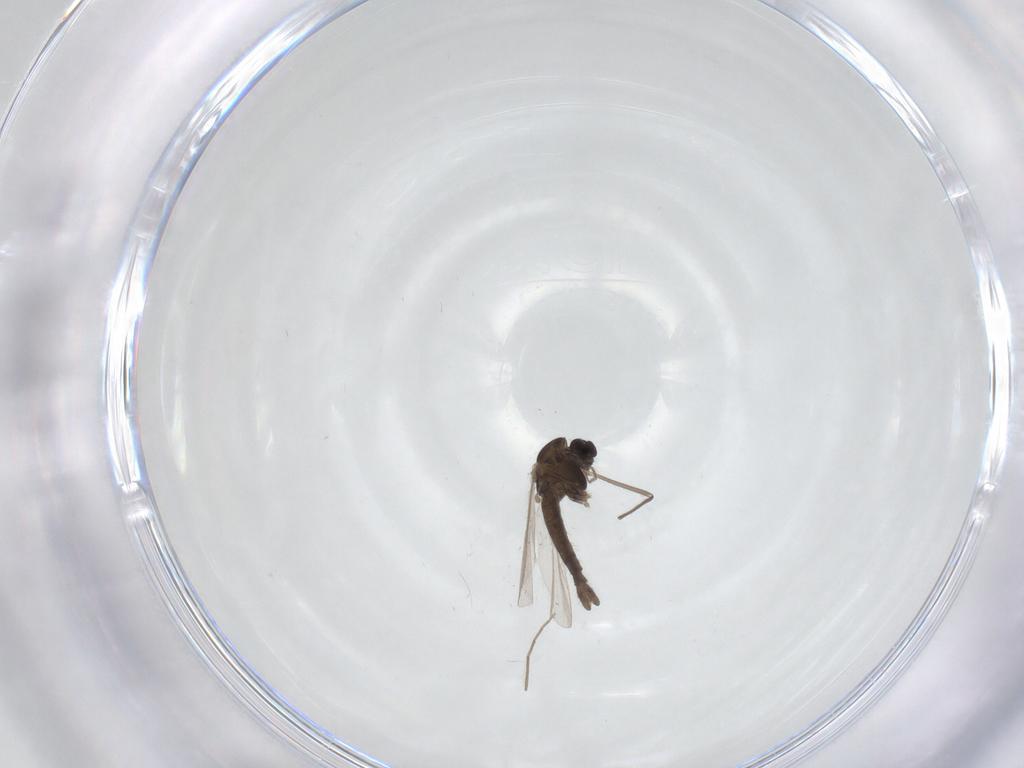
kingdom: Animalia
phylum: Arthropoda
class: Insecta
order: Diptera
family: Chironomidae
